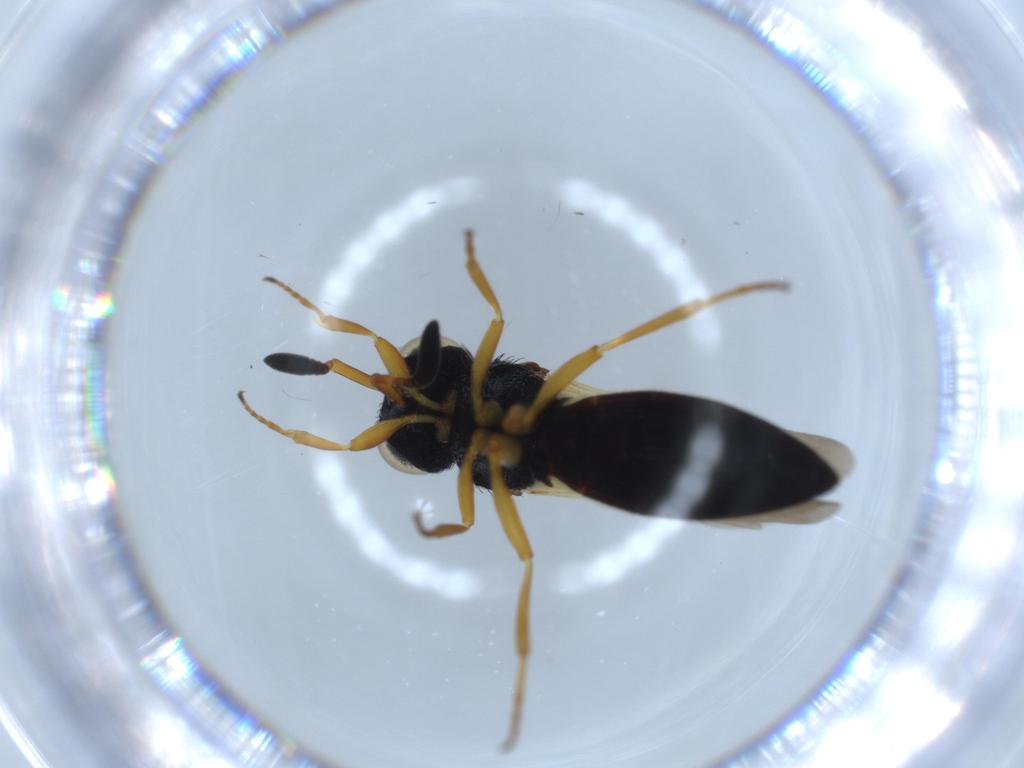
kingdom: Animalia
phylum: Arthropoda
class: Insecta
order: Hymenoptera
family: Scelionidae
